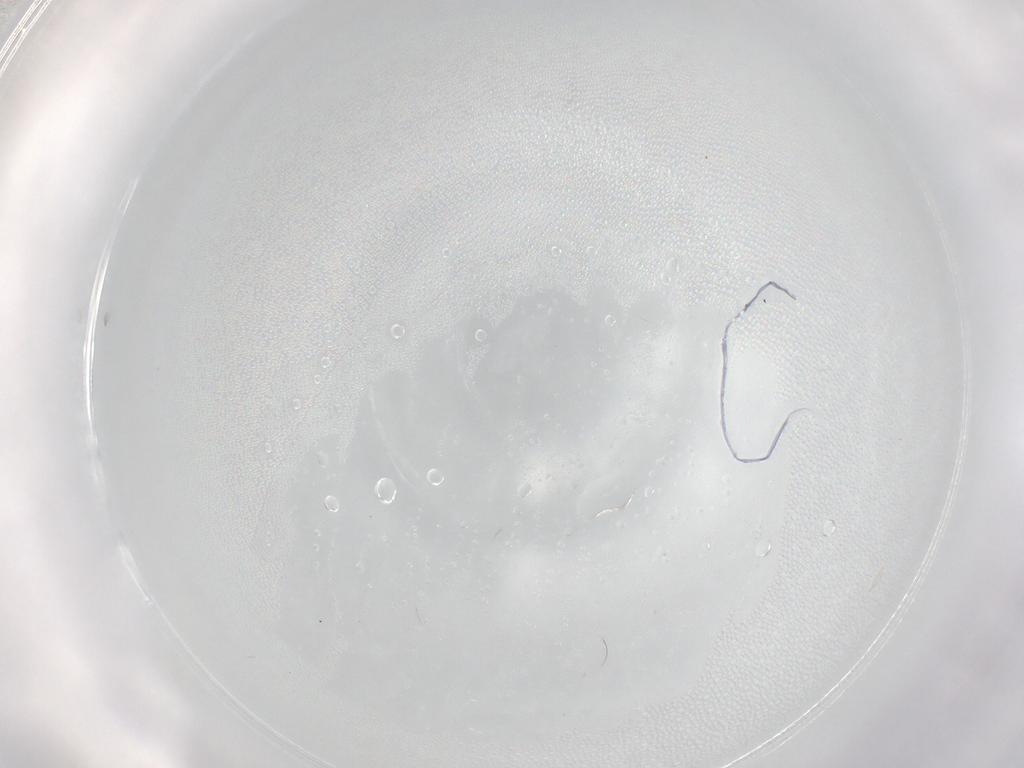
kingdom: Animalia
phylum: Arthropoda
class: Insecta
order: Diptera
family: Cecidomyiidae
